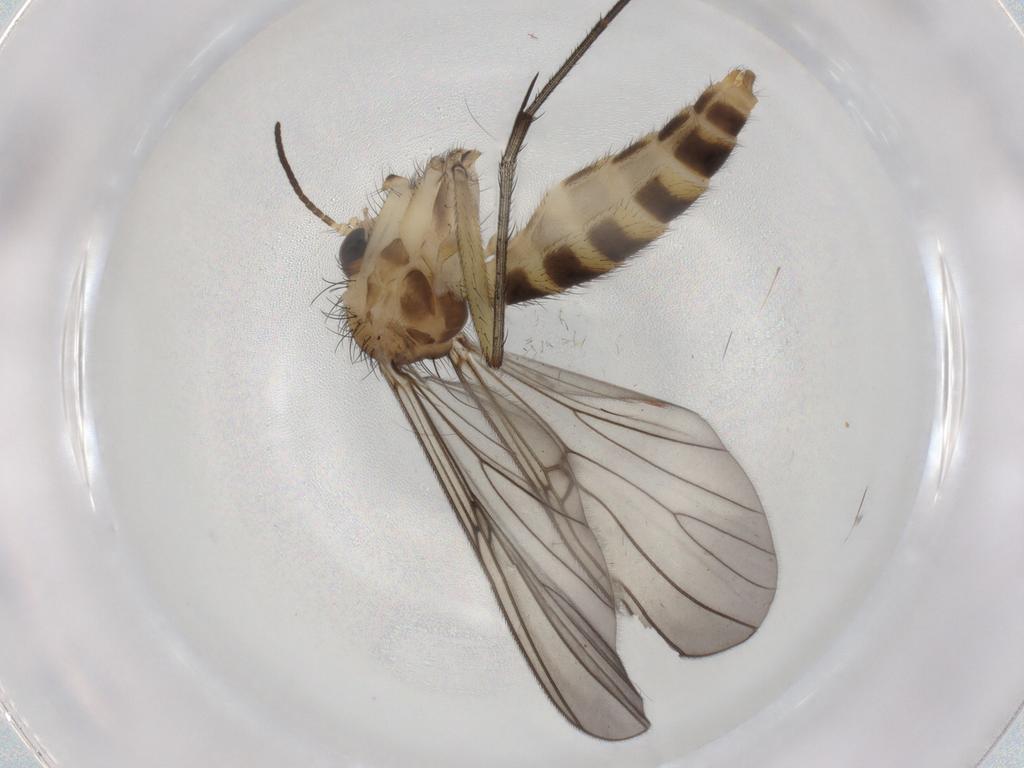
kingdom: Animalia
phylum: Arthropoda
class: Insecta
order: Diptera
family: Mycetophilidae
